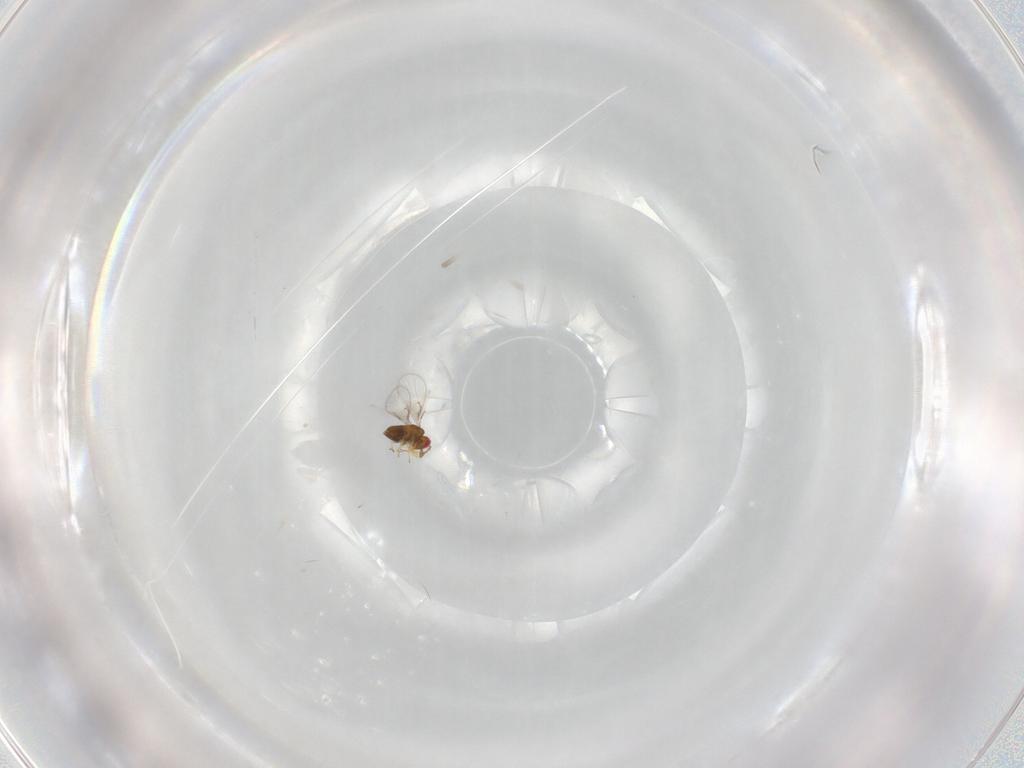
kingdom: Animalia
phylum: Arthropoda
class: Insecta
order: Hymenoptera
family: Trichogrammatidae
